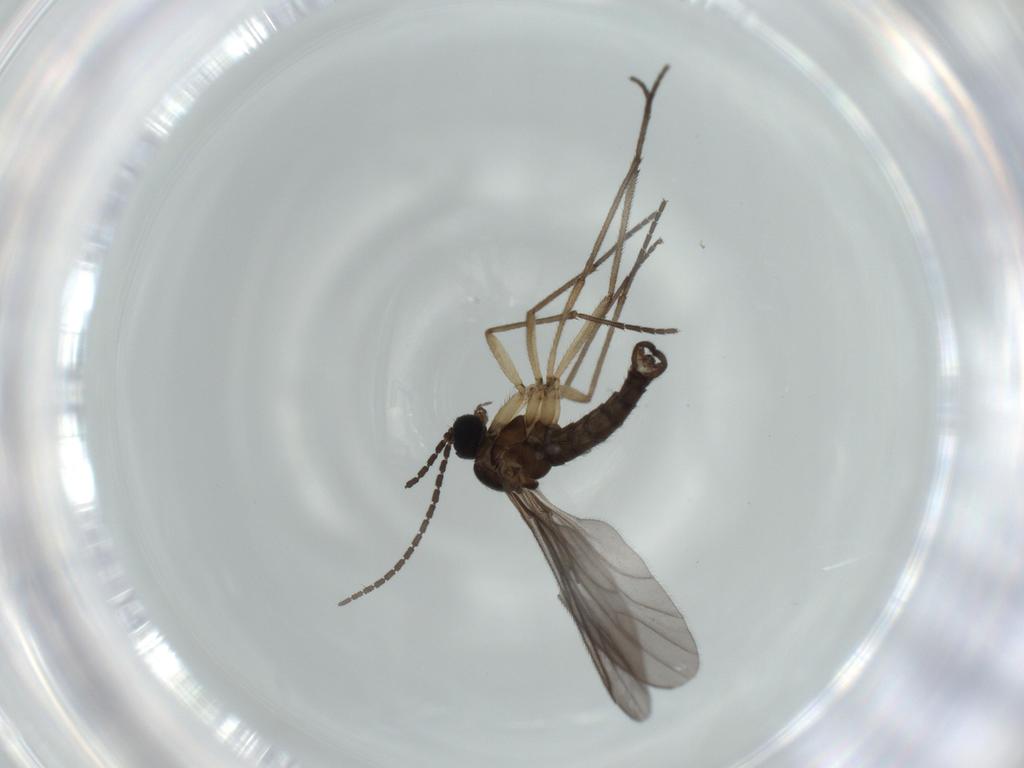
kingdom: Animalia
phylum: Arthropoda
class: Insecta
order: Diptera
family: Sciaridae
